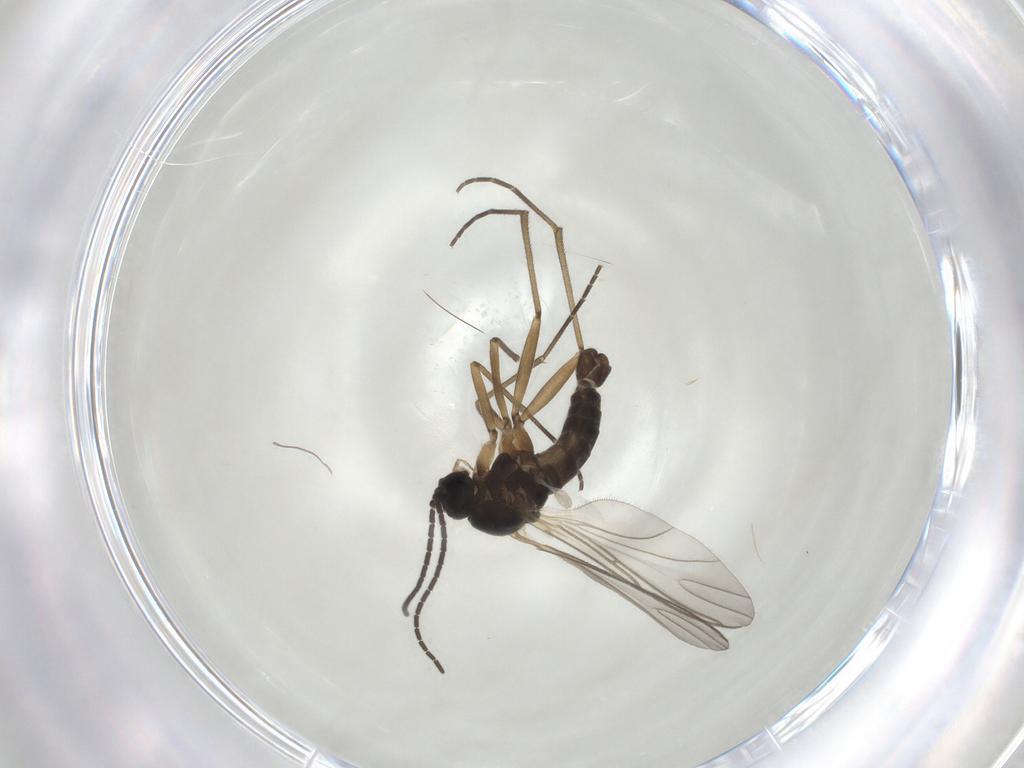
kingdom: Animalia
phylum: Arthropoda
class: Insecta
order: Diptera
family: Sciaridae
